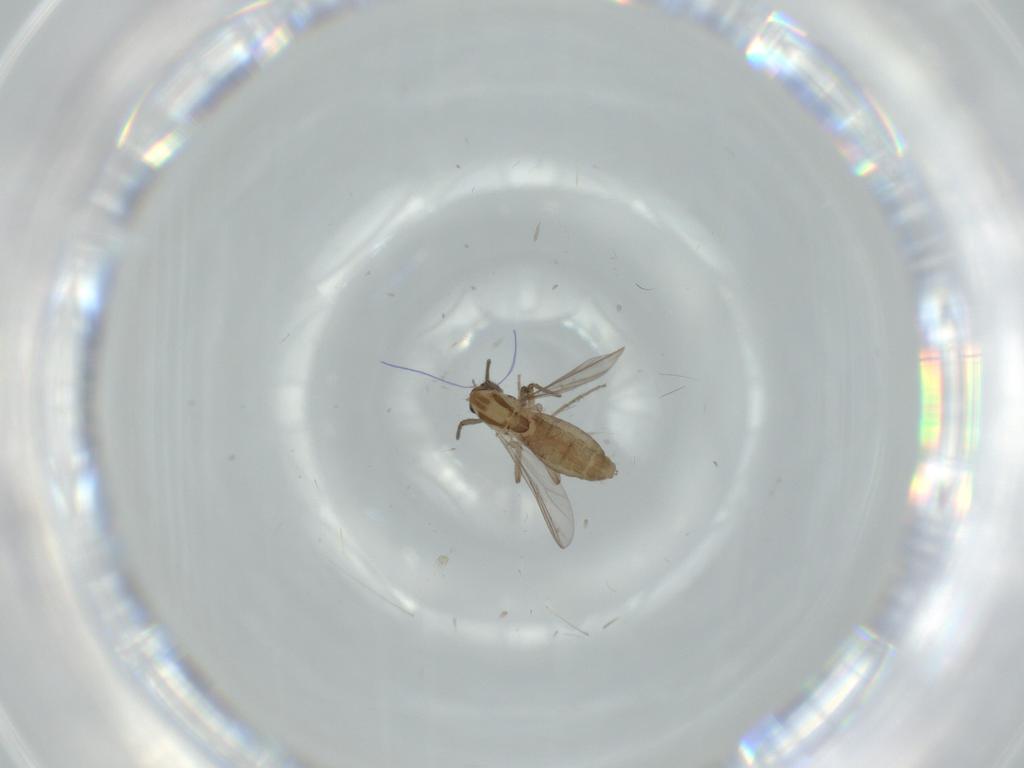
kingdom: Animalia
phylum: Arthropoda
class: Insecta
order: Diptera
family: Chironomidae
